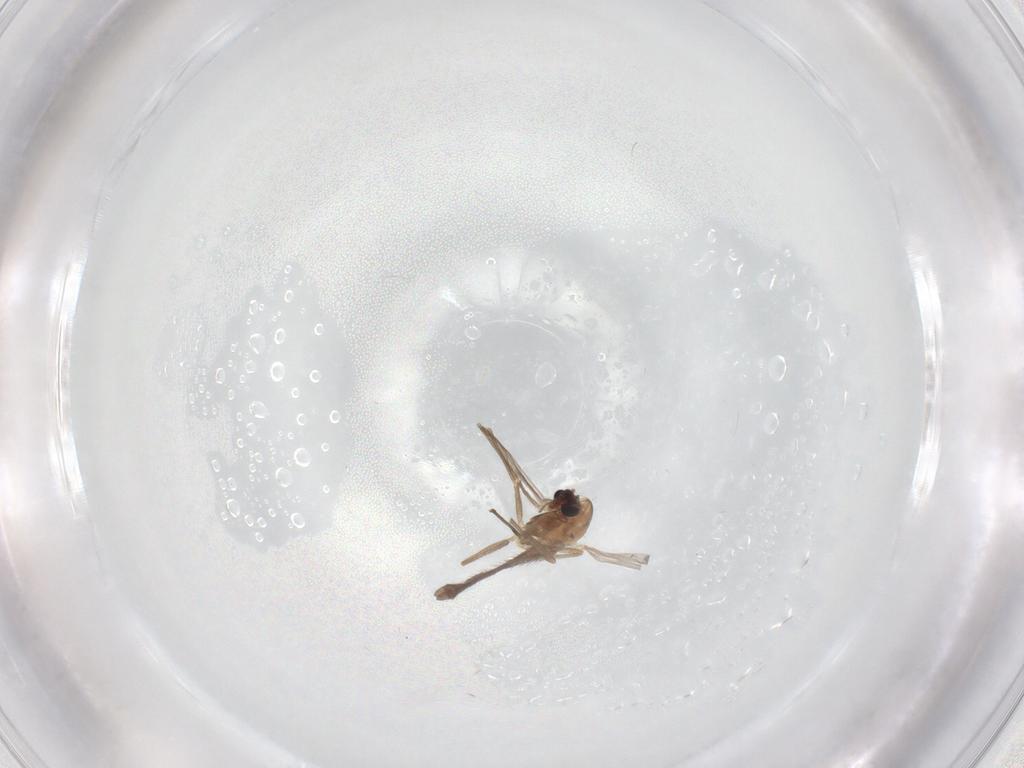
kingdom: Animalia
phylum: Arthropoda
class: Insecta
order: Diptera
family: Chironomidae
